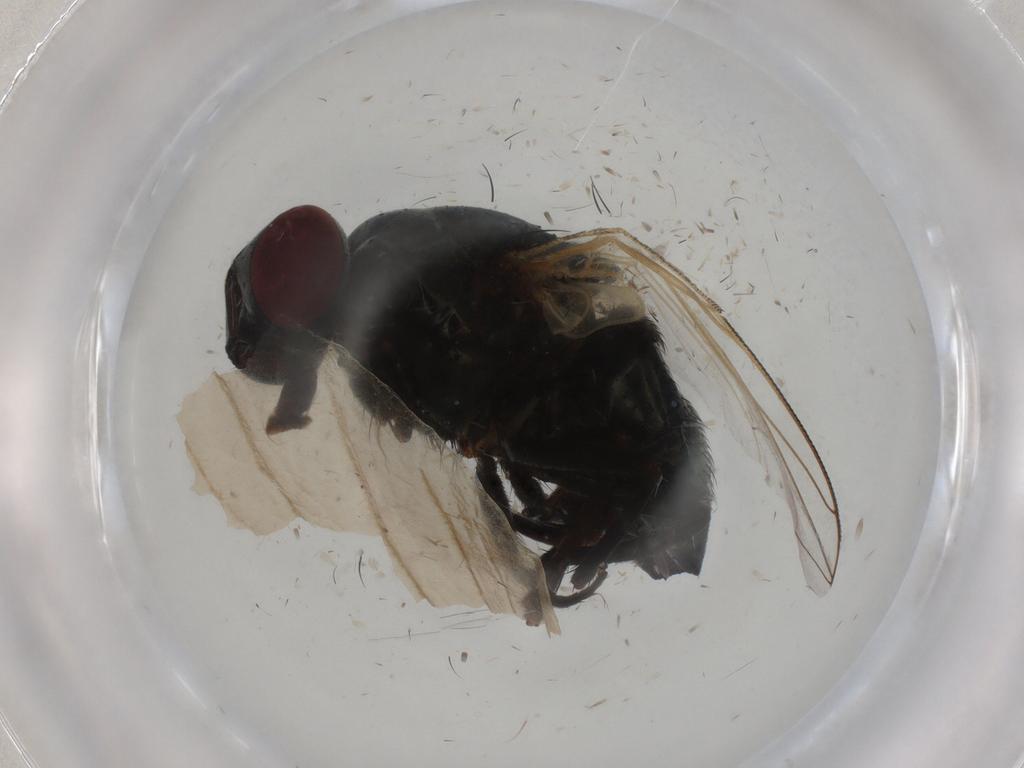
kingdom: Animalia
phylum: Arthropoda
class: Insecta
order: Diptera
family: Muscidae
